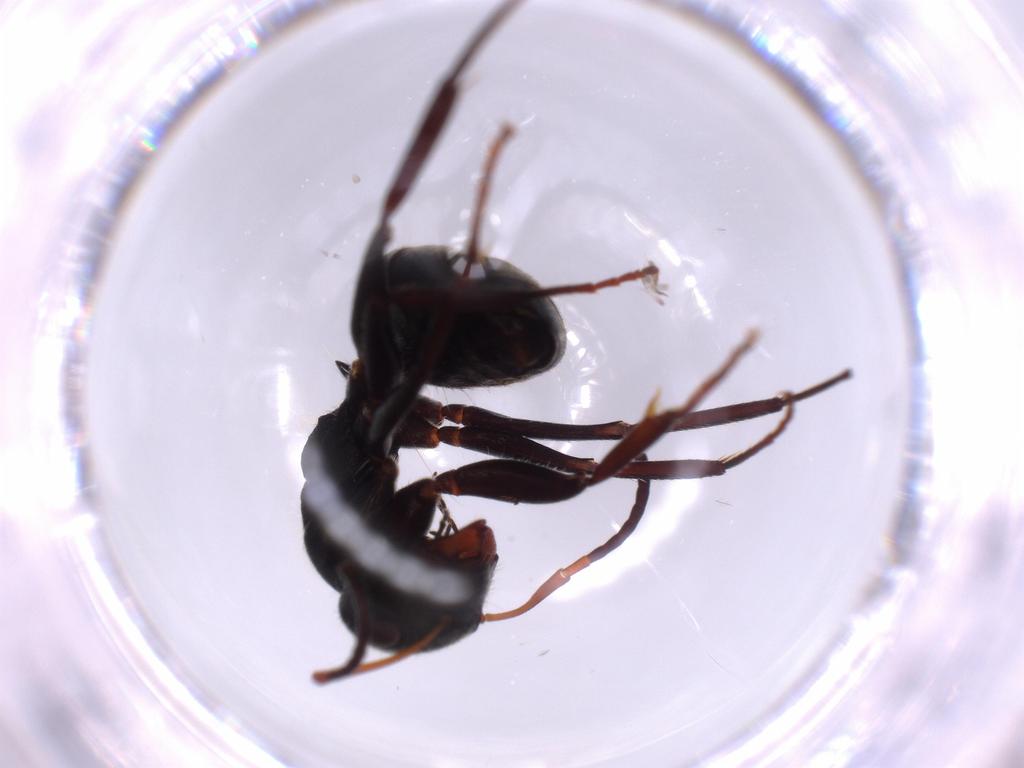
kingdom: Animalia
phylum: Arthropoda
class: Insecta
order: Hymenoptera
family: Formicidae
